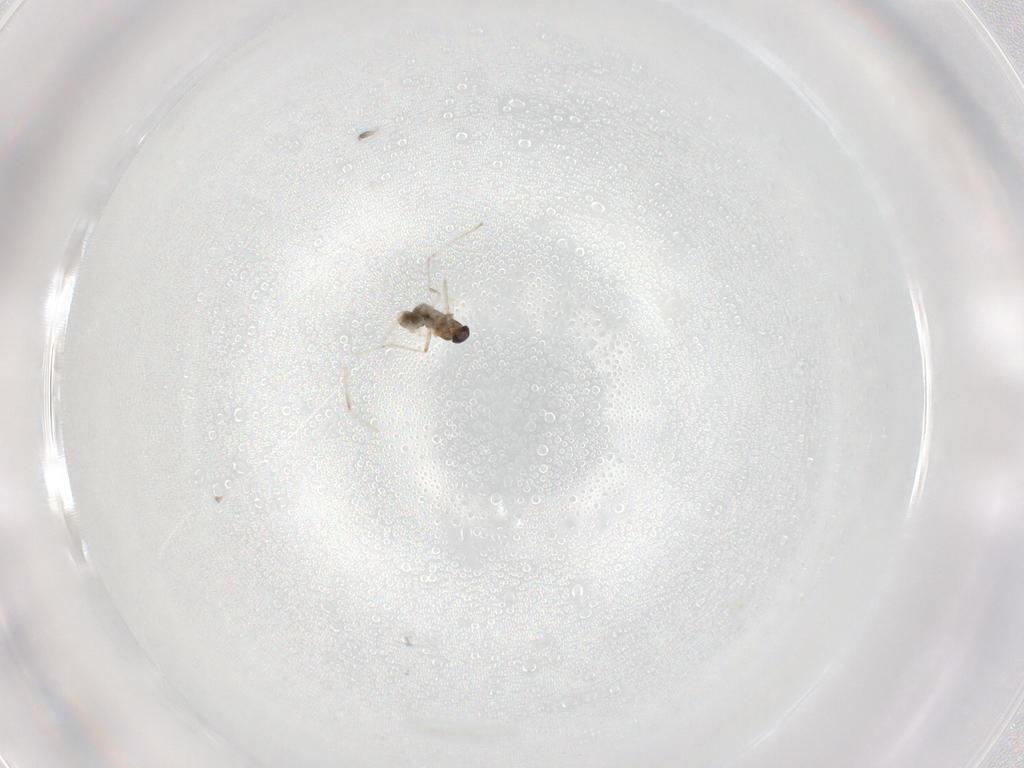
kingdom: Animalia
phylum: Arthropoda
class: Insecta
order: Diptera
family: Cecidomyiidae
